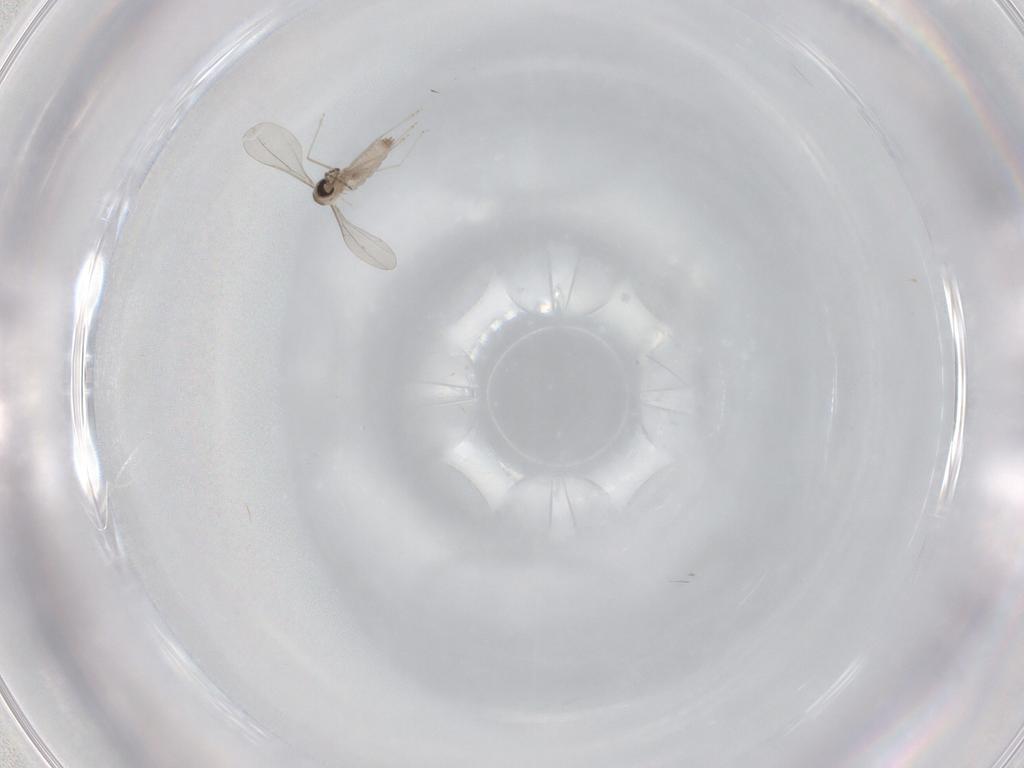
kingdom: Animalia
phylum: Arthropoda
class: Insecta
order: Diptera
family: Cecidomyiidae
